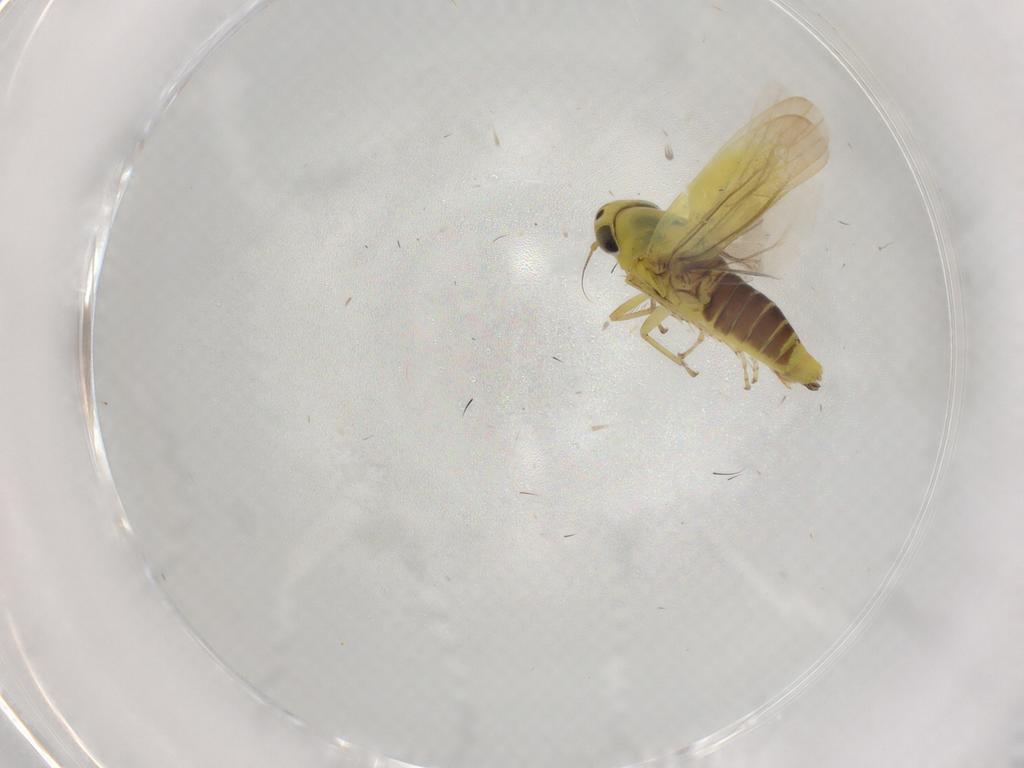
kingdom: Animalia
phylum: Arthropoda
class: Insecta
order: Hemiptera
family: Cicadellidae
